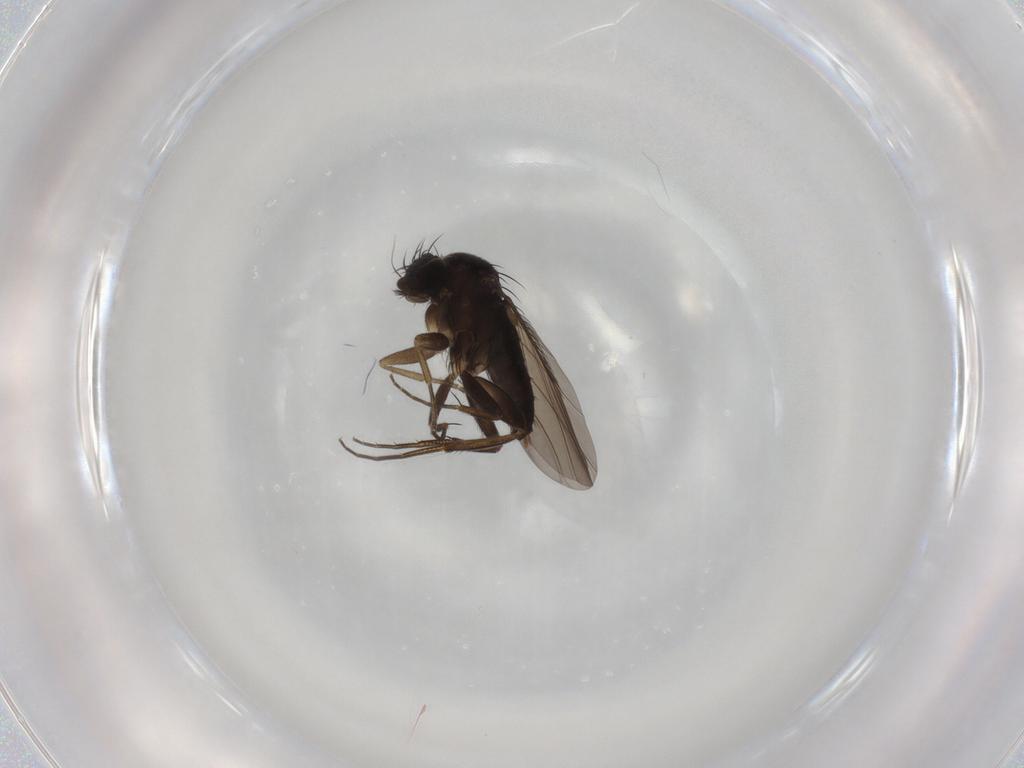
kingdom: Animalia
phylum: Arthropoda
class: Insecta
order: Diptera
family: Phoridae
